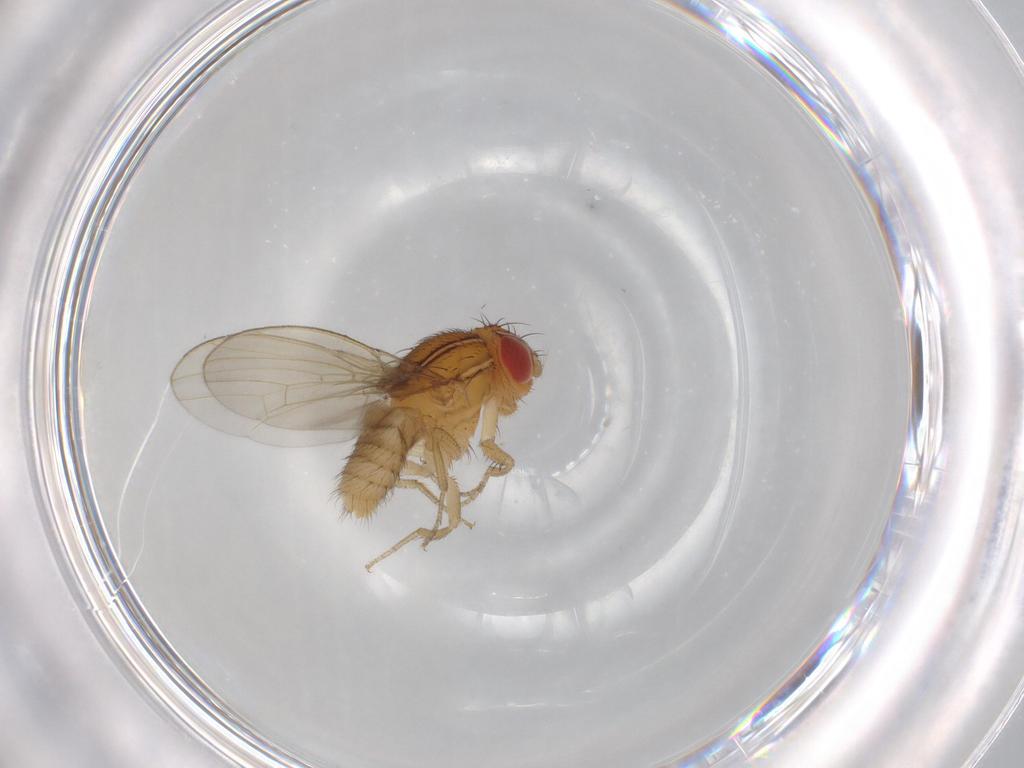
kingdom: Animalia
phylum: Arthropoda
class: Insecta
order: Diptera
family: Drosophilidae
